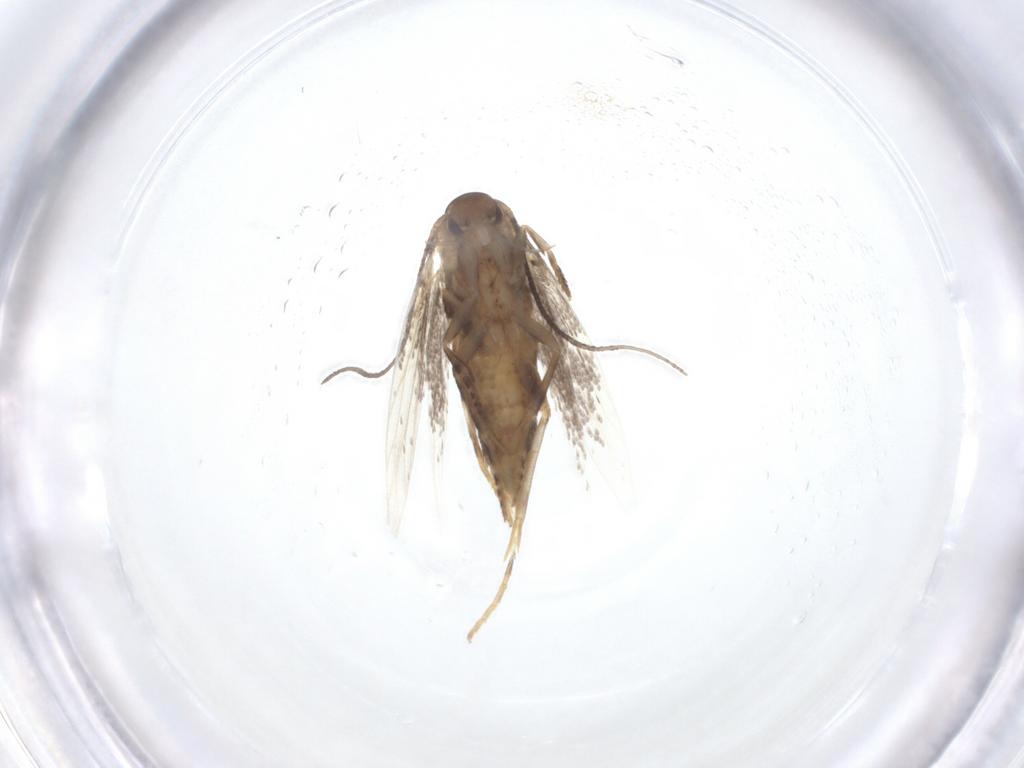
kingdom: Animalia
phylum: Arthropoda
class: Insecta
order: Lepidoptera
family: Elachistidae
